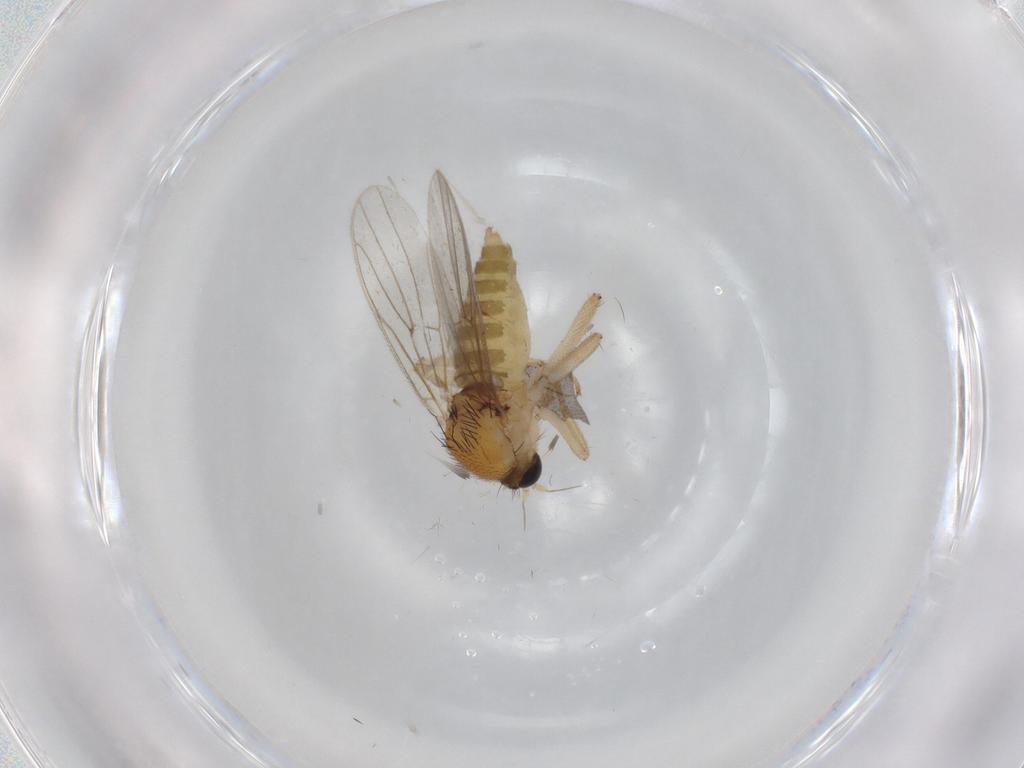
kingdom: Animalia
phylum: Arthropoda
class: Insecta
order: Diptera
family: Hybotidae
